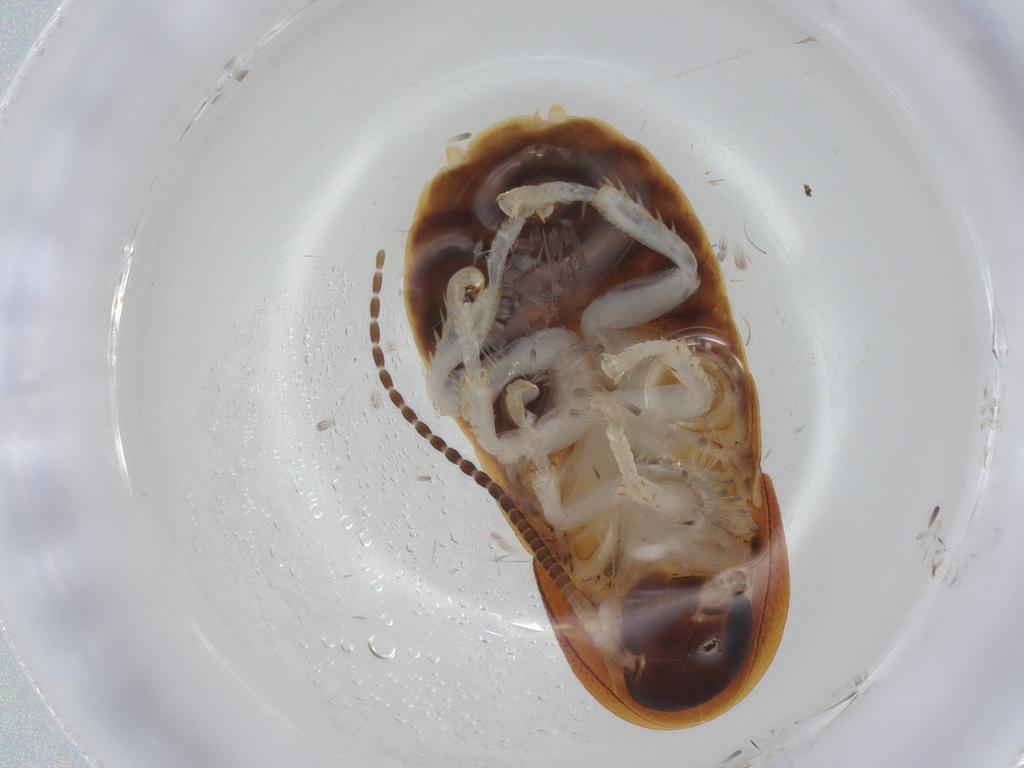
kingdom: Animalia
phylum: Arthropoda
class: Insecta
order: Blattodea
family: Blaberidae
